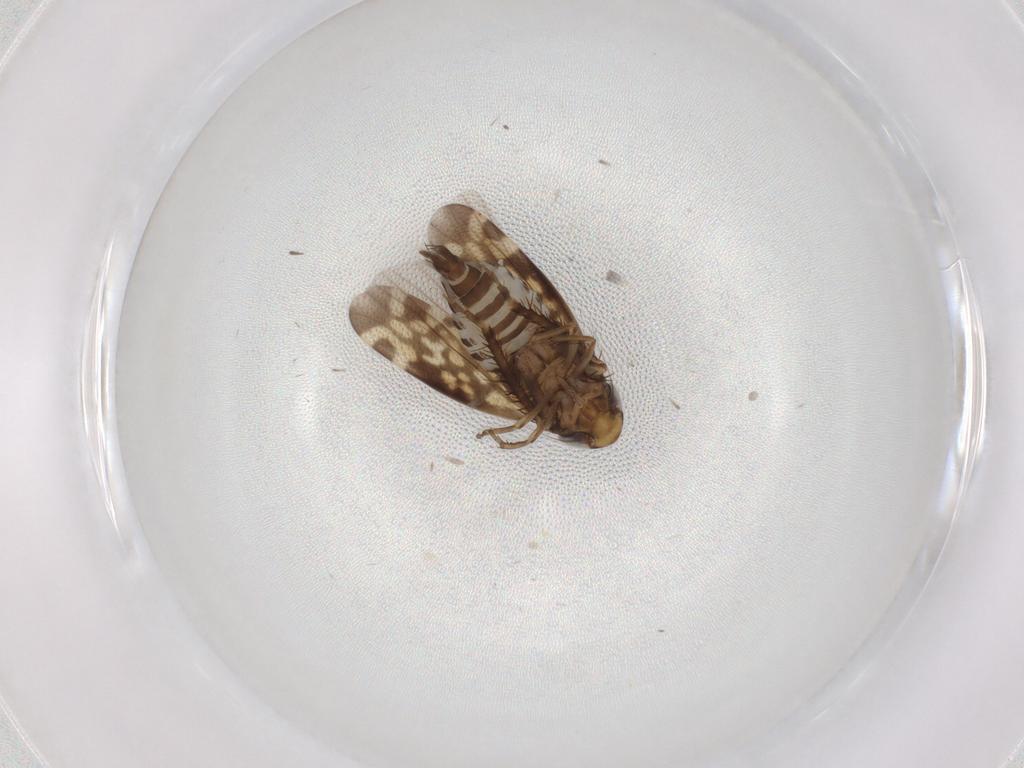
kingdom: Animalia
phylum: Arthropoda
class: Insecta
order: Hemiptera
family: Cicadellidae
